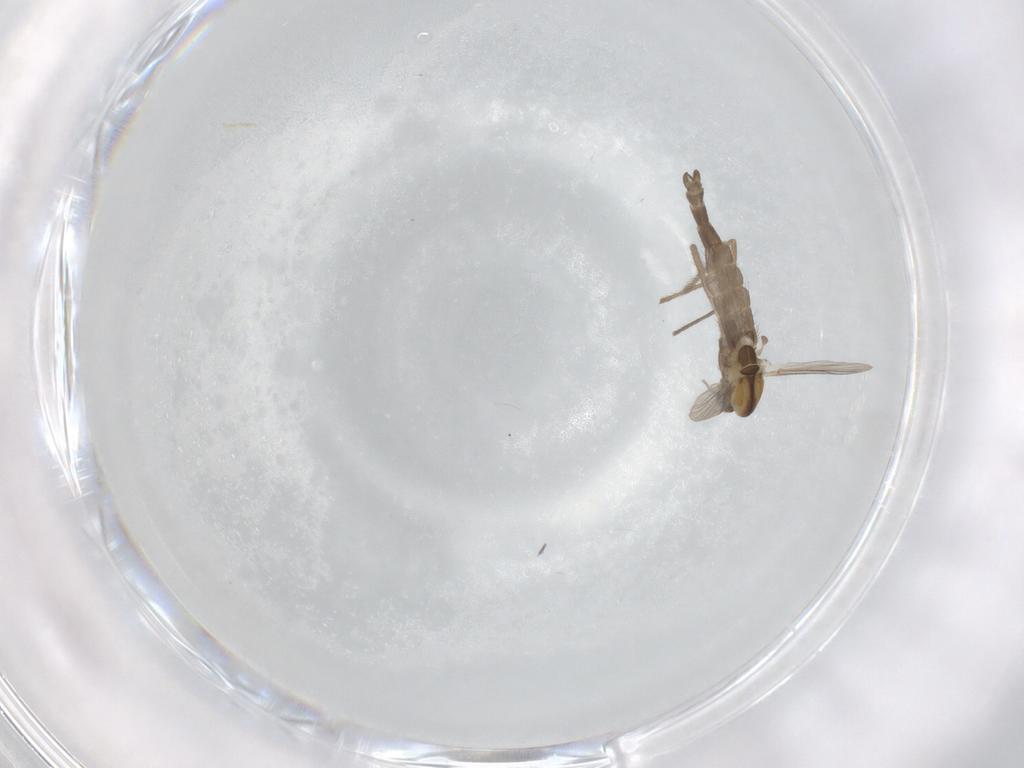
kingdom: Animalia
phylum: Arthropoda
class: Insecta
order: Diptera
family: Chironomidae
